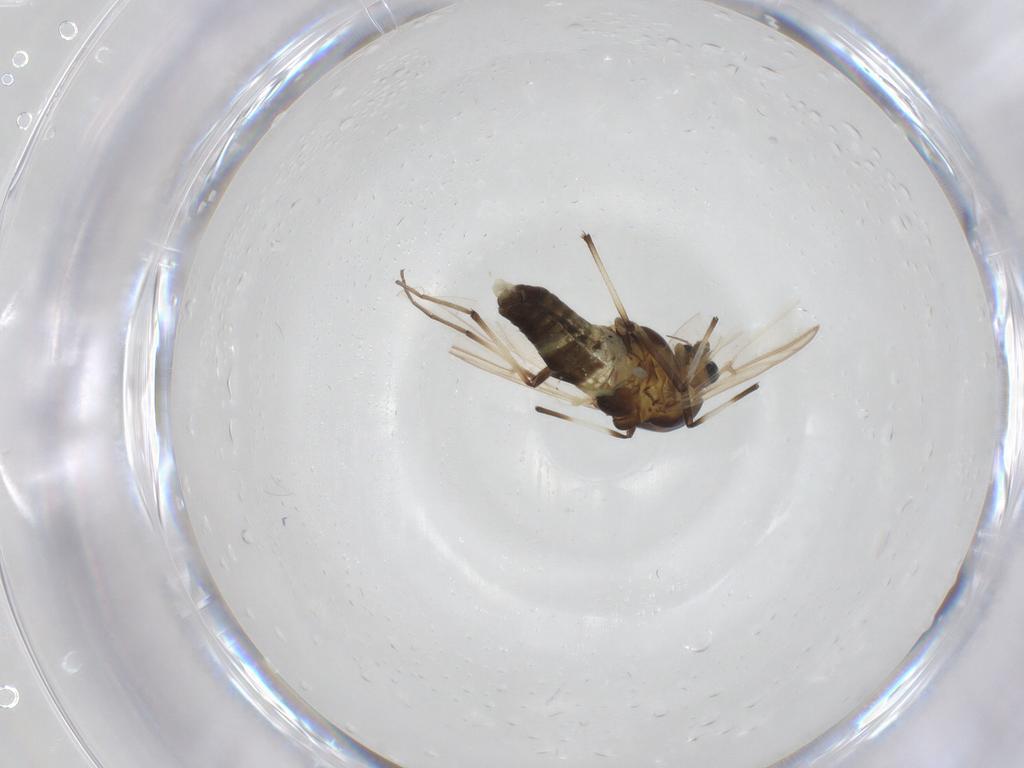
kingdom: Animalia
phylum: Arthropoda
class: Insecta
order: Diptera
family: Chironomidae
